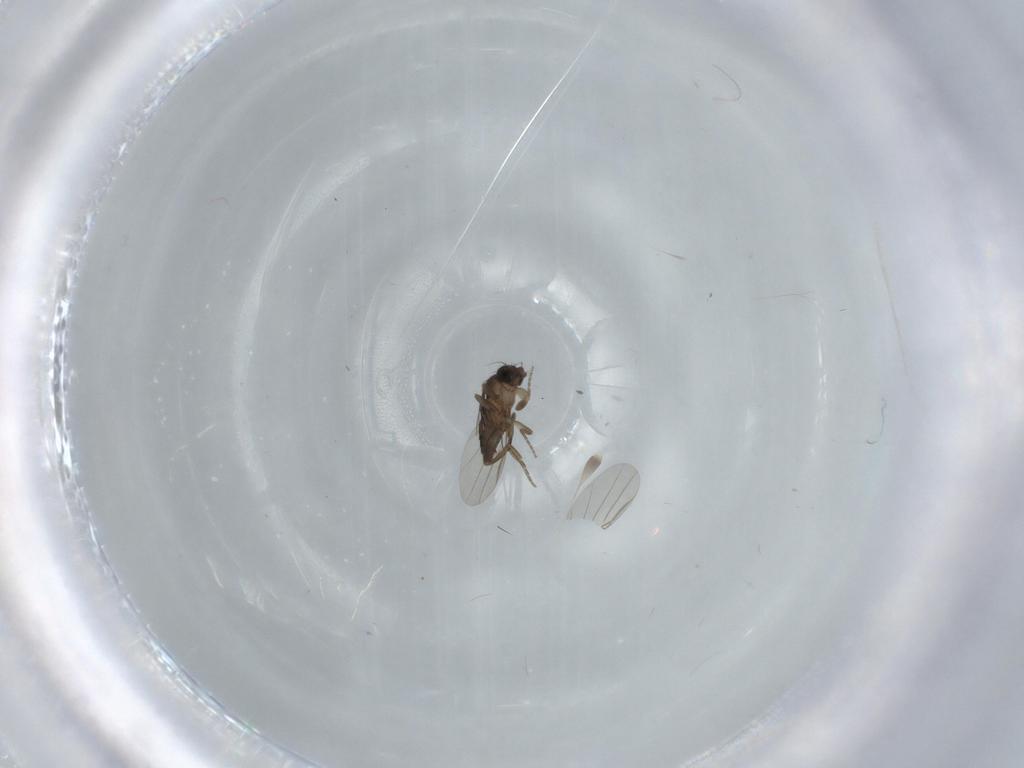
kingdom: Animalia
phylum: Arthropoda
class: Insecta
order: Diptera
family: Phoridae
